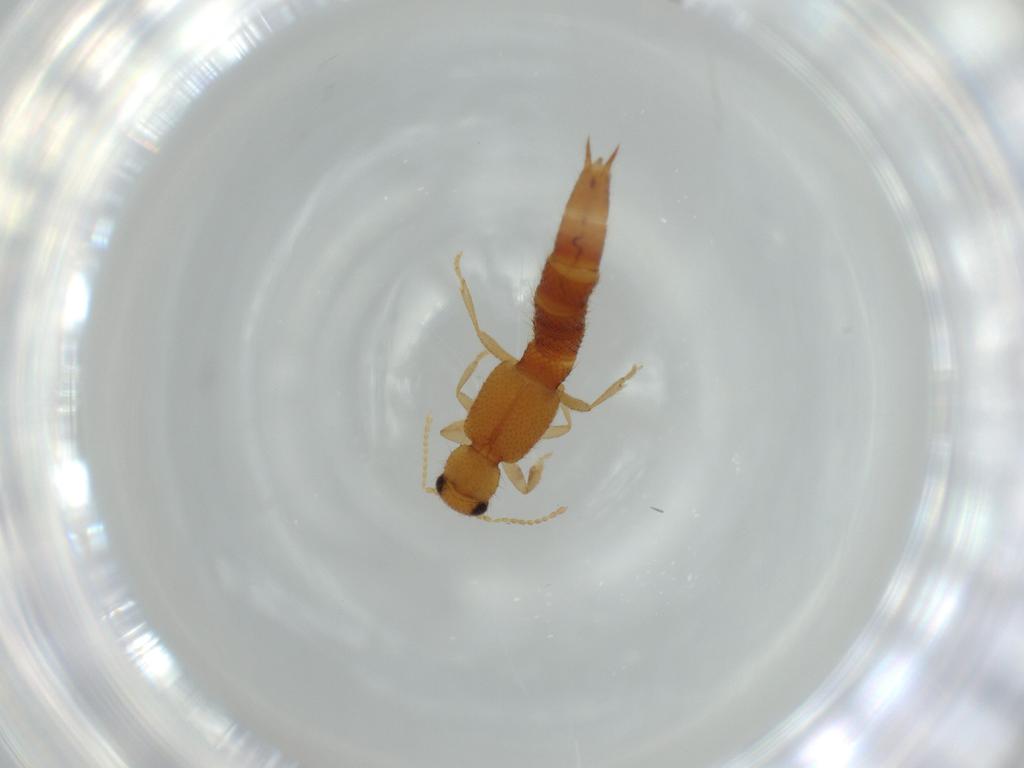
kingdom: Animalia
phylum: Arthropoda
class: Insecta
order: Coleoptera
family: Staphylinidae
